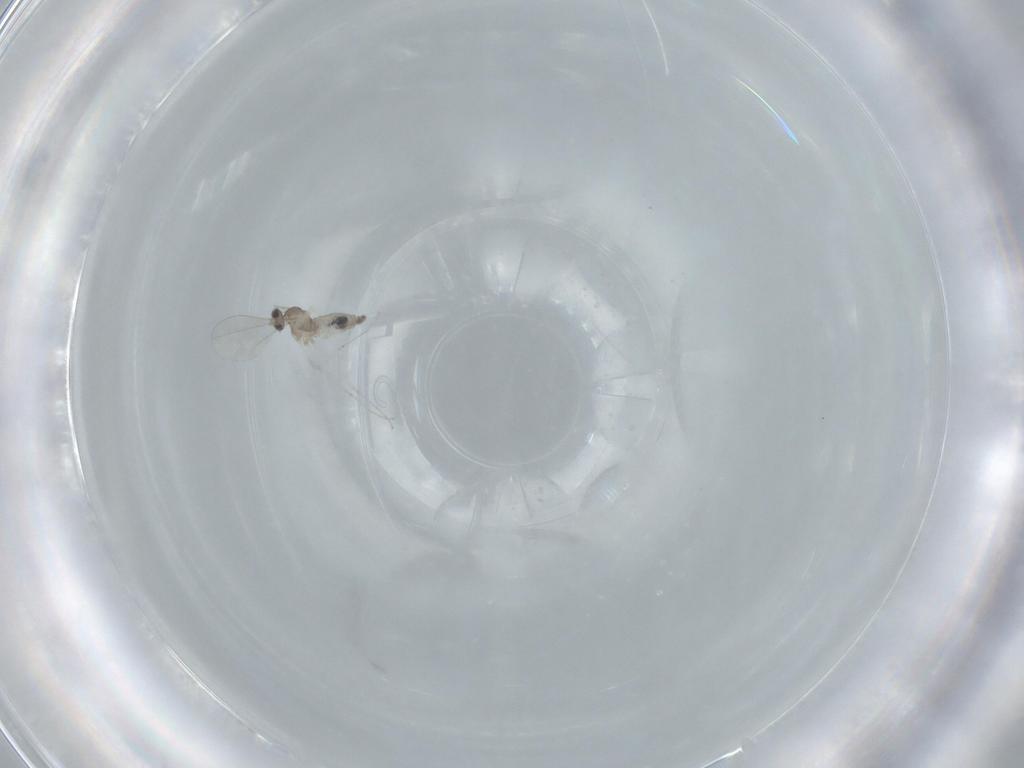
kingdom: Animalia
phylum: Arthropoda
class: Insecta
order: Diptera
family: Cecidomyiidae
